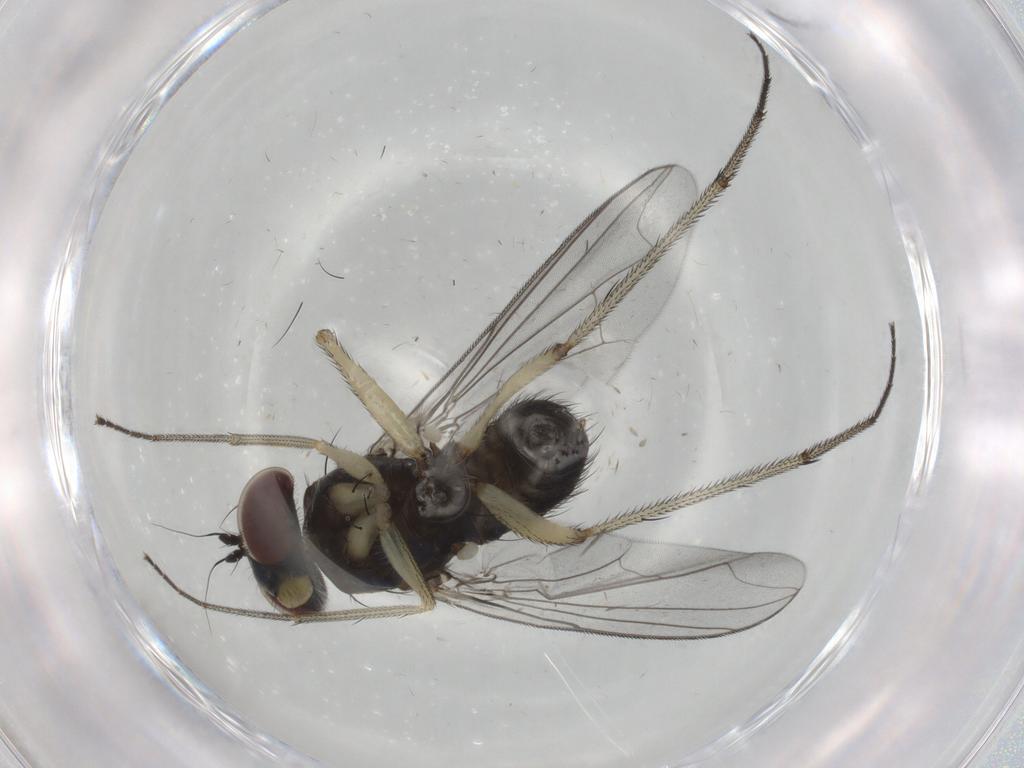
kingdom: Animalia
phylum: Arthropoda
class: Insecta
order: Diptera
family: Dolichopodidae
